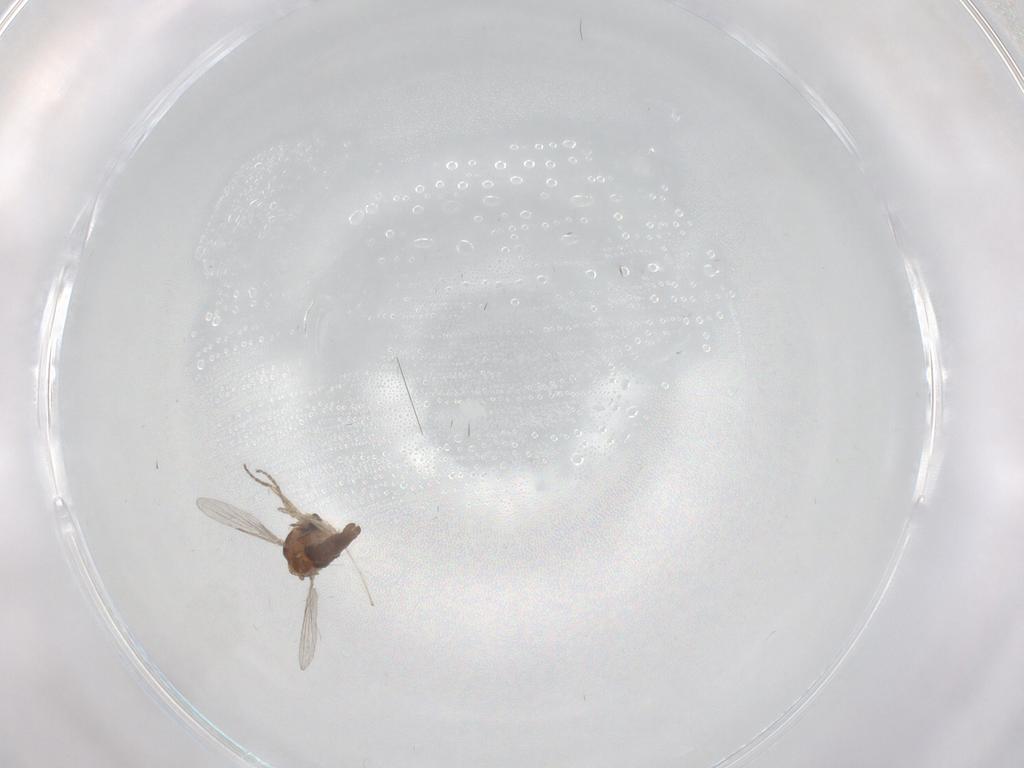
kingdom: Animalia
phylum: Arthropoda
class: Insecta
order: Diptera
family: Ceratopogonidae
